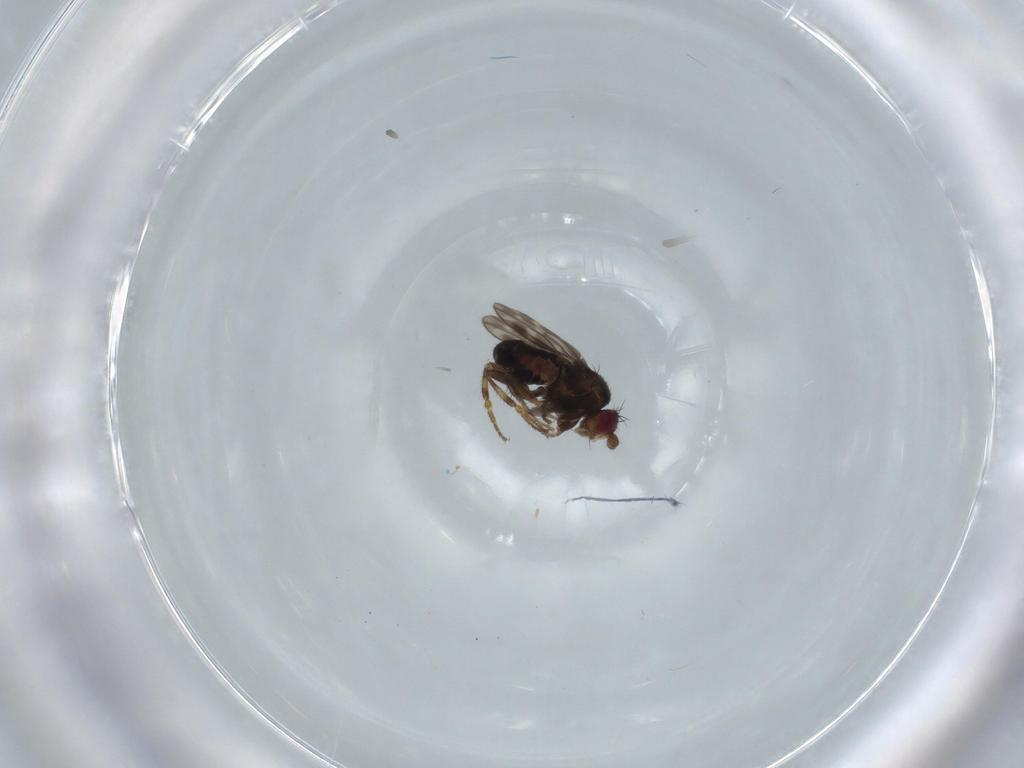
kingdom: Animalia
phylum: Arthropoda
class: Insecta
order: Diptera
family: Sphaeroceridae
